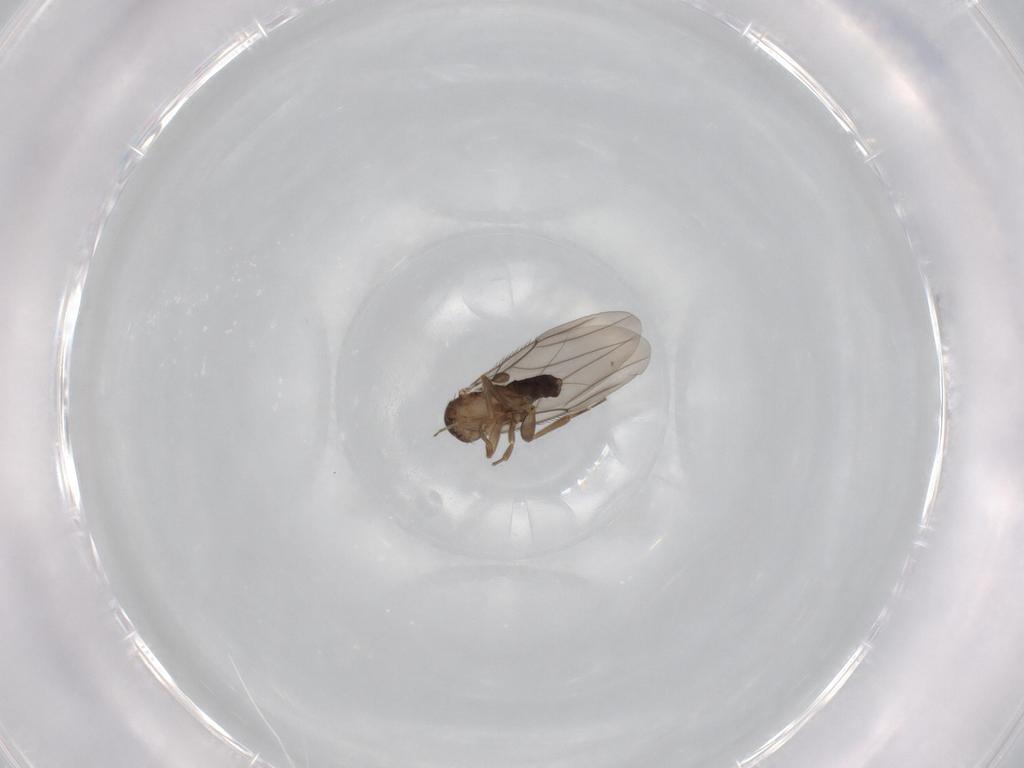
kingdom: Animalia
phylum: Arthropoda
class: Insecta
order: Diptera
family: Phoridae
